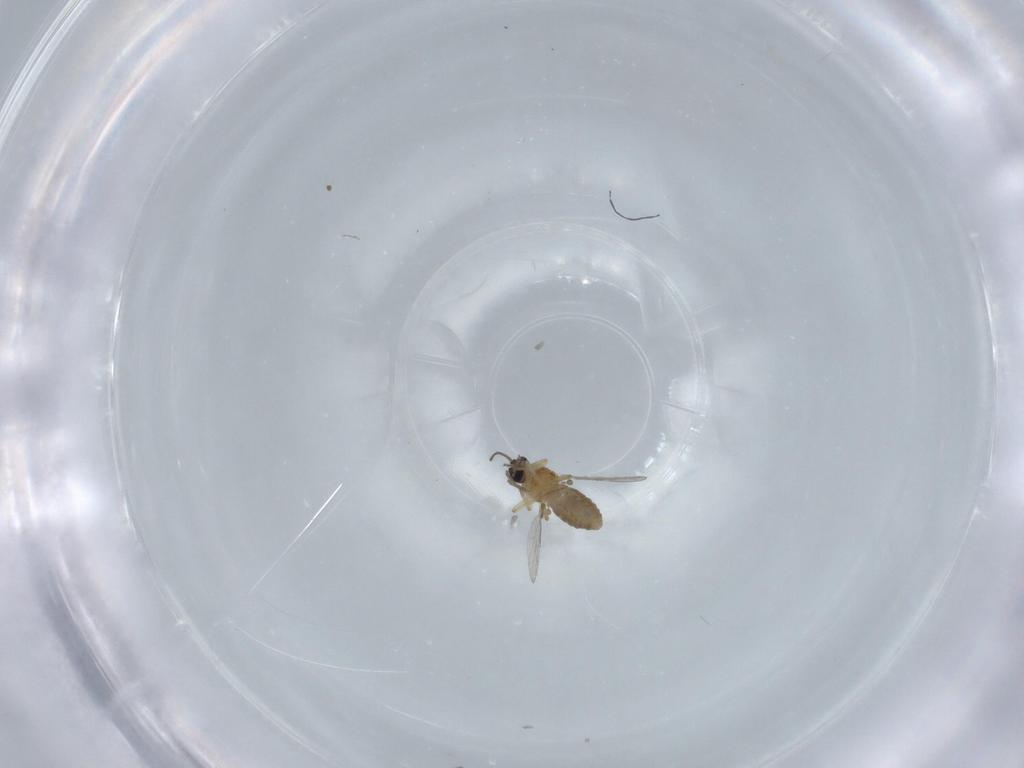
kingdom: Animalia
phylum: Arthropoda
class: Insecta
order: Diptera
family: Ceratopogonidae
